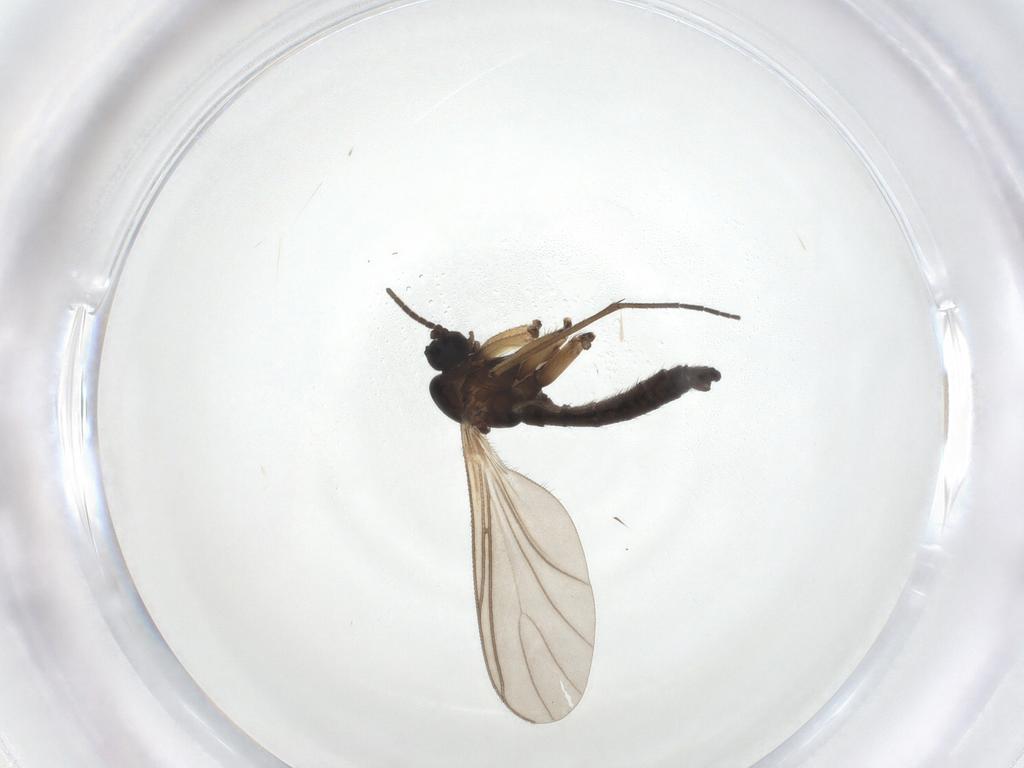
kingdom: Animalia
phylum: Arthropoda
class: Insecta
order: Diptera
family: Sciaridae
